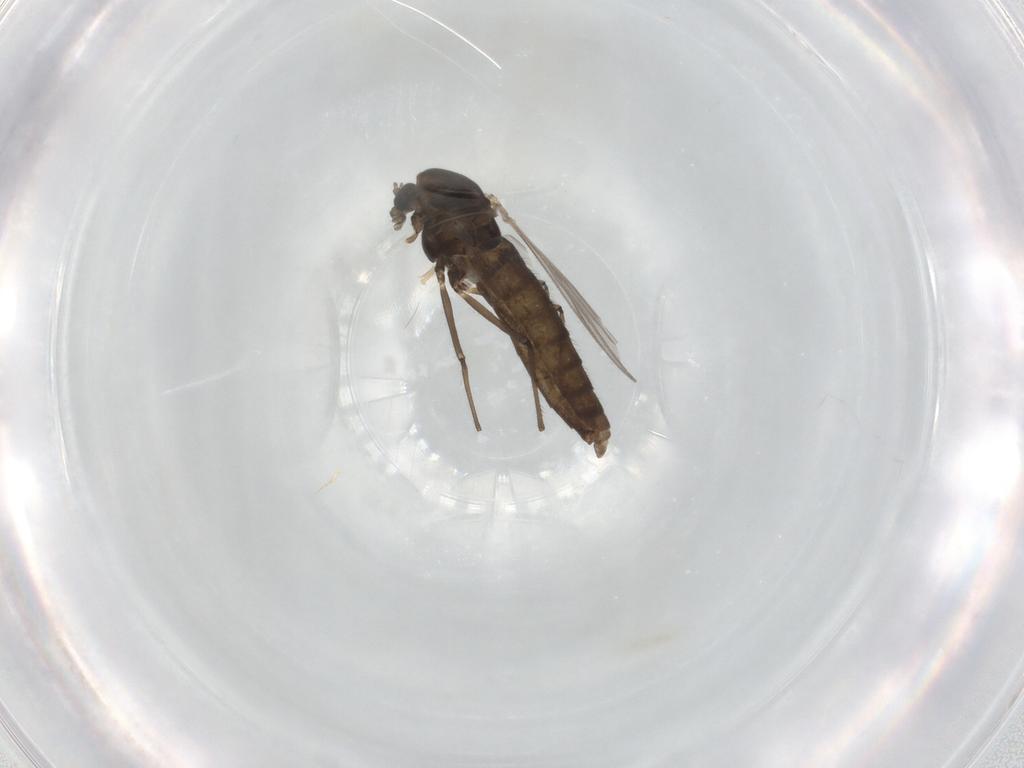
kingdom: Animalia
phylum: Arthropoda
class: Insecta
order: Diptera
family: Chironomidae
